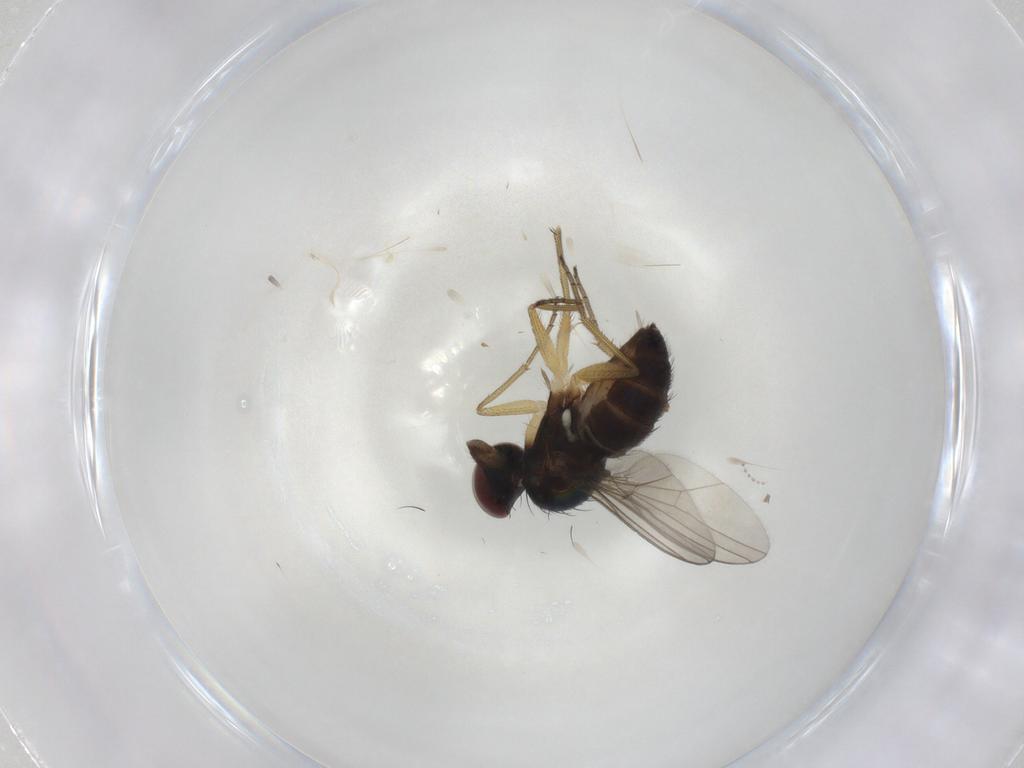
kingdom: Animalia
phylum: Arthropoda
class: Insecta
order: Diptera
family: Dolichopodidae
